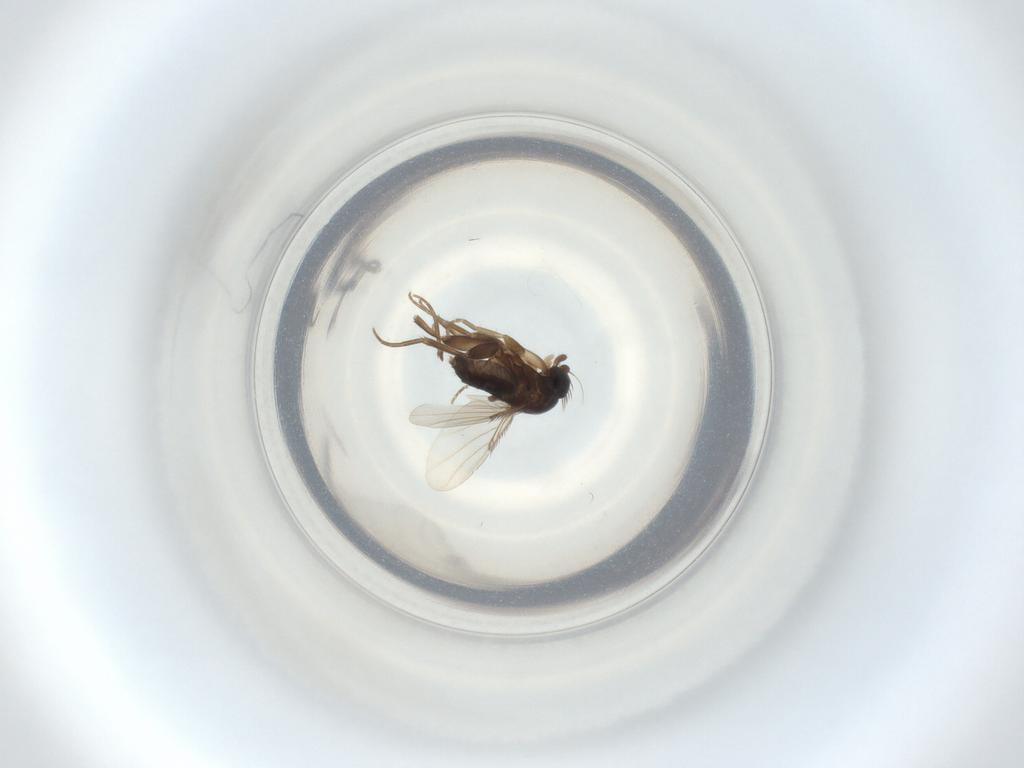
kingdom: Animalia
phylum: Arthropoda
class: Insecta
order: Diptera
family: Phoridae
